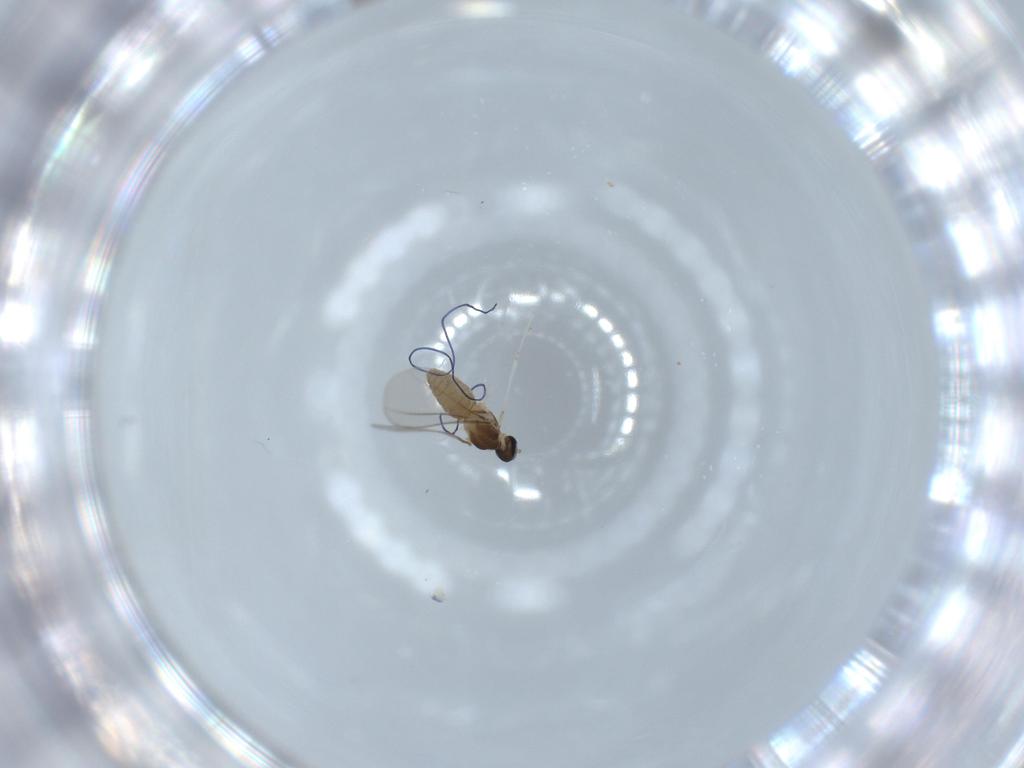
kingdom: Animalia
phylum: Arthropoda
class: Insecta
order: Diptera
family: Cecidomyiidae
